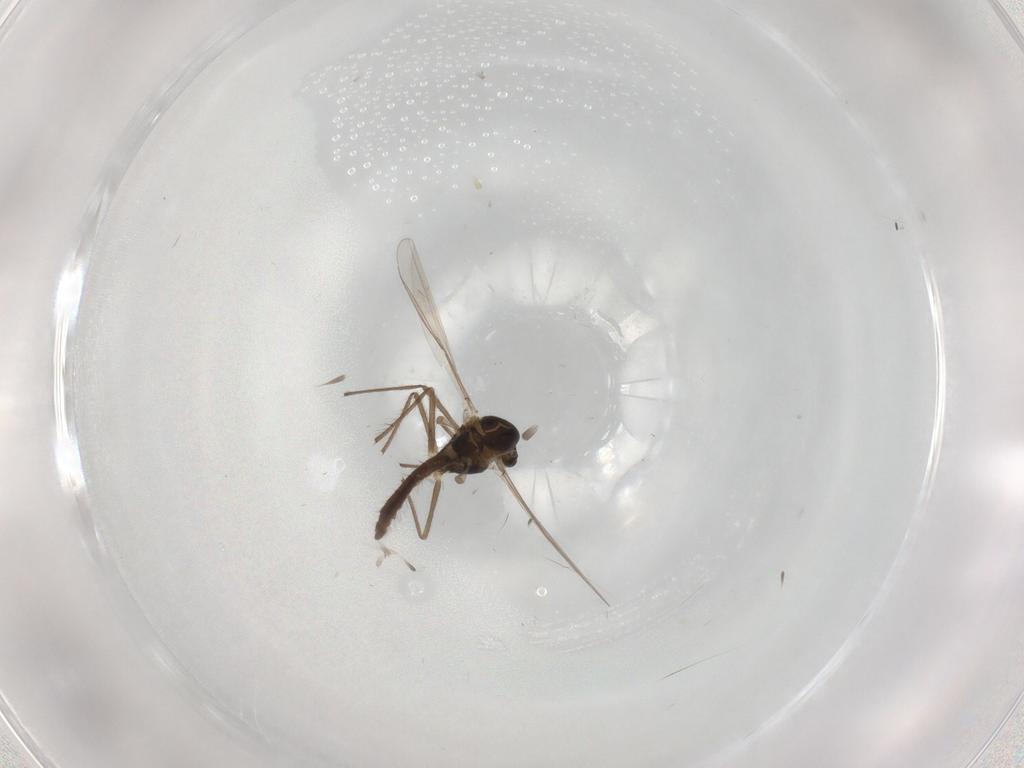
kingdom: Animalia
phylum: Arthropoda
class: Insecta
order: Diptera
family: Chironomidae
